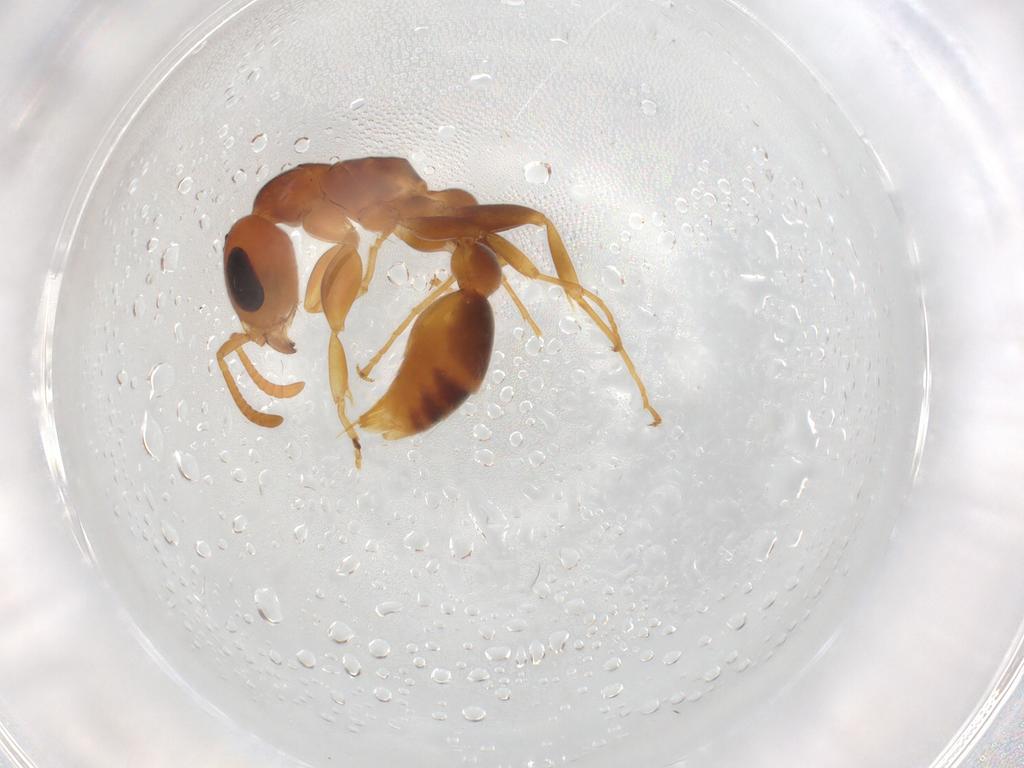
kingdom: Animalia
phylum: Arthropoda
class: Insecta
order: Hymenoptera
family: Formicidae
